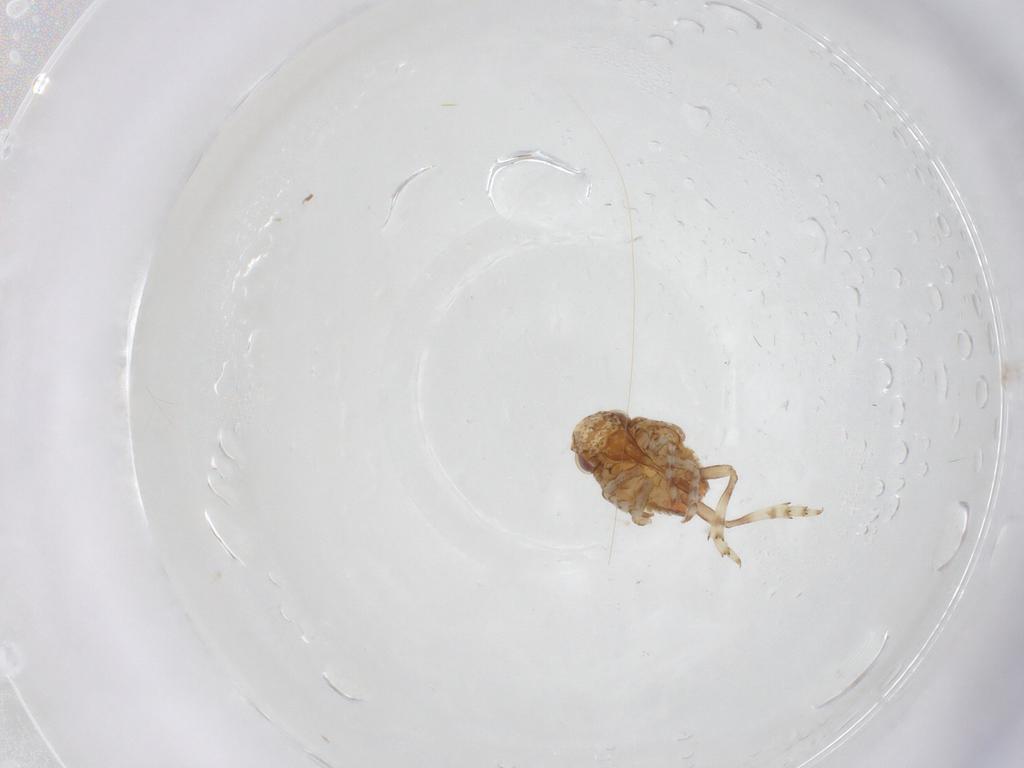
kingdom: Animalia
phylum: Arthropoda
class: Insecta
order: Hemiptera
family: Nogodinidae
